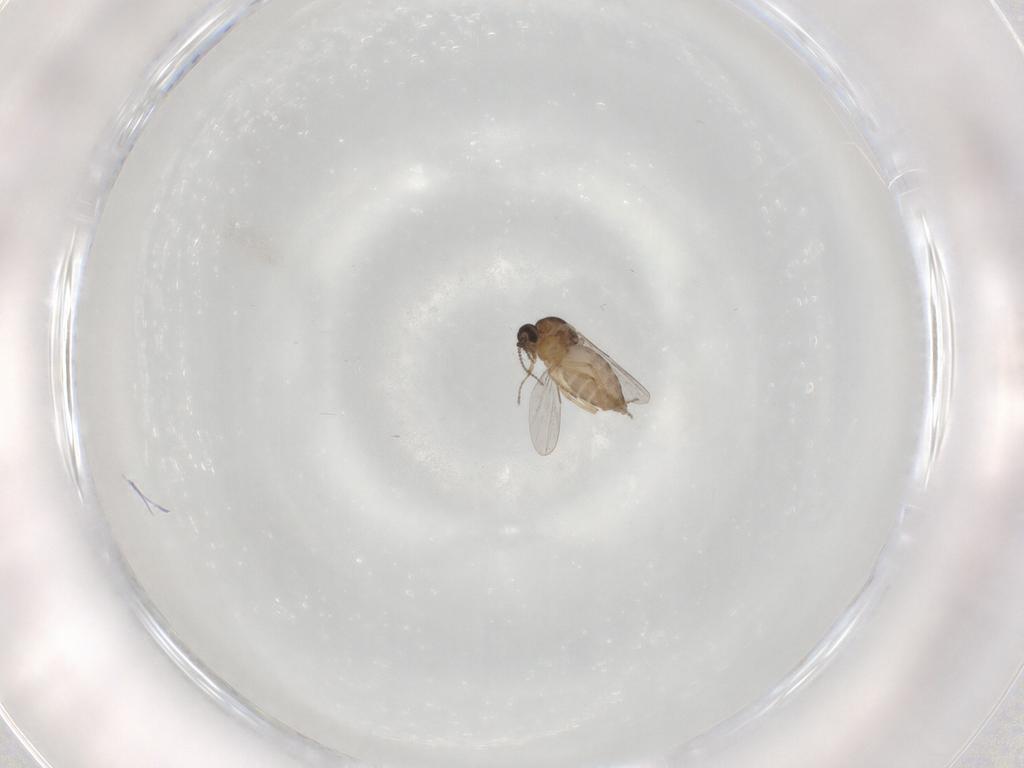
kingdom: Animalia
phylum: Arthropoda
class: Insecta
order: Diptera
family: Ceratopogonidae
